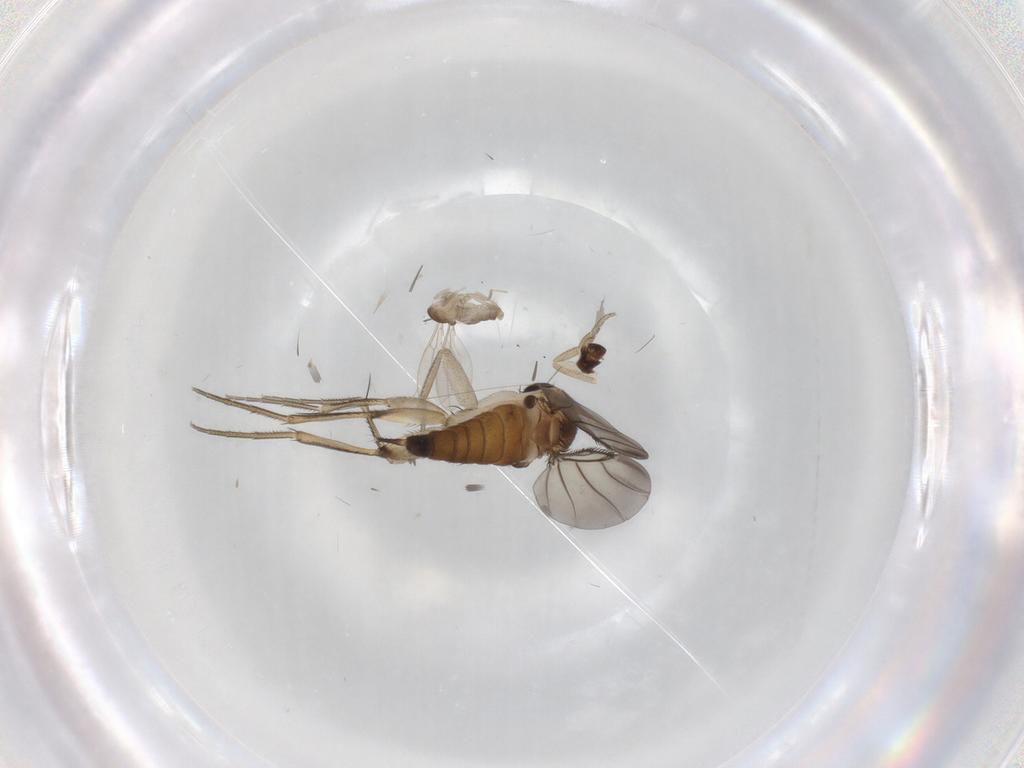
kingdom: Animalia
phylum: Arthropoda
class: Insecta
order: Diptera
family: Cecidomyiidae
